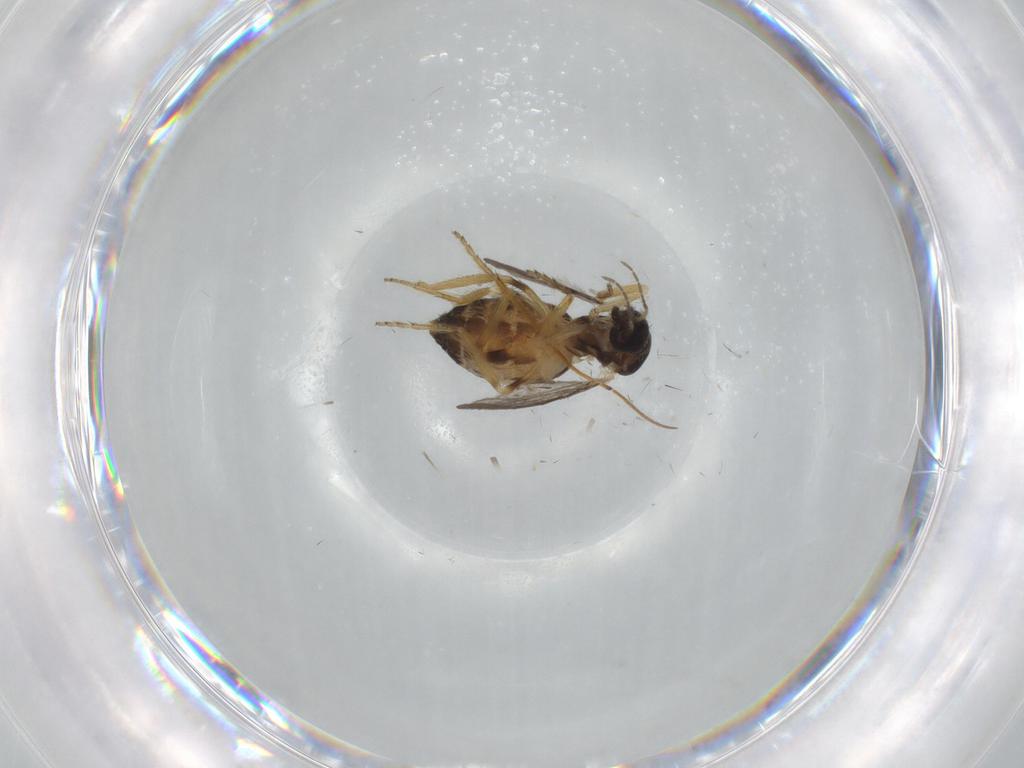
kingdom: Animalia
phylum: Arthropoda
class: Insecta
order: Diptera
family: Ceratopogonidae
